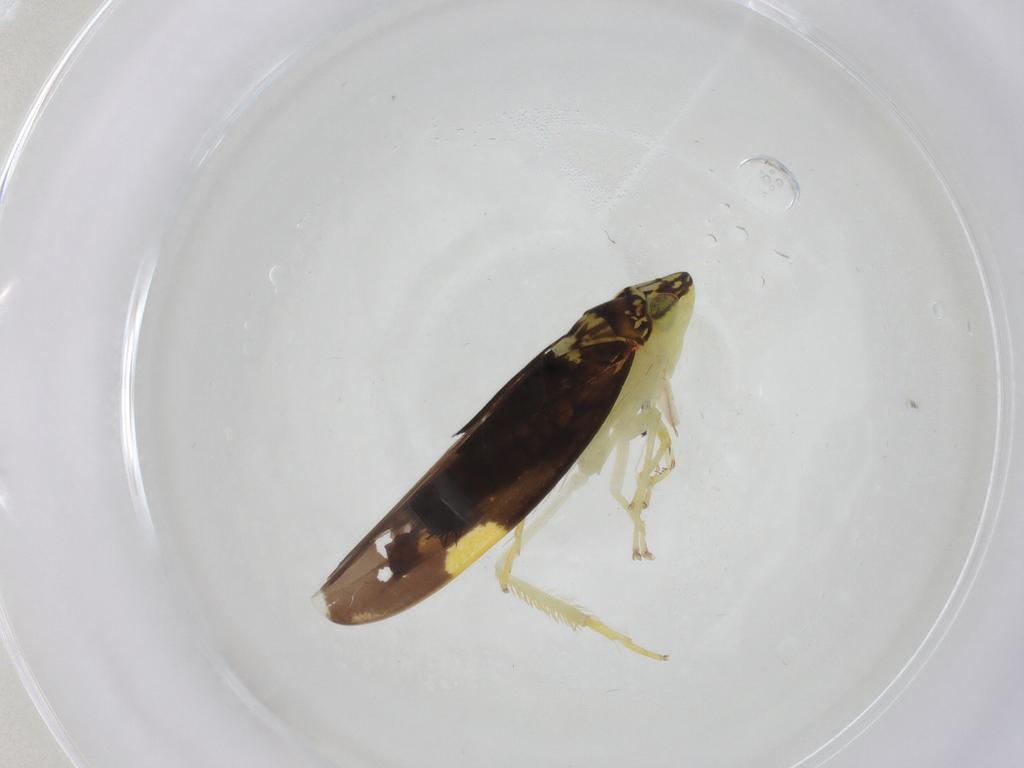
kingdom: Animalia
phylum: Arthropoda
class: Insecta
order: Hemiptera
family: Cicadellidae
